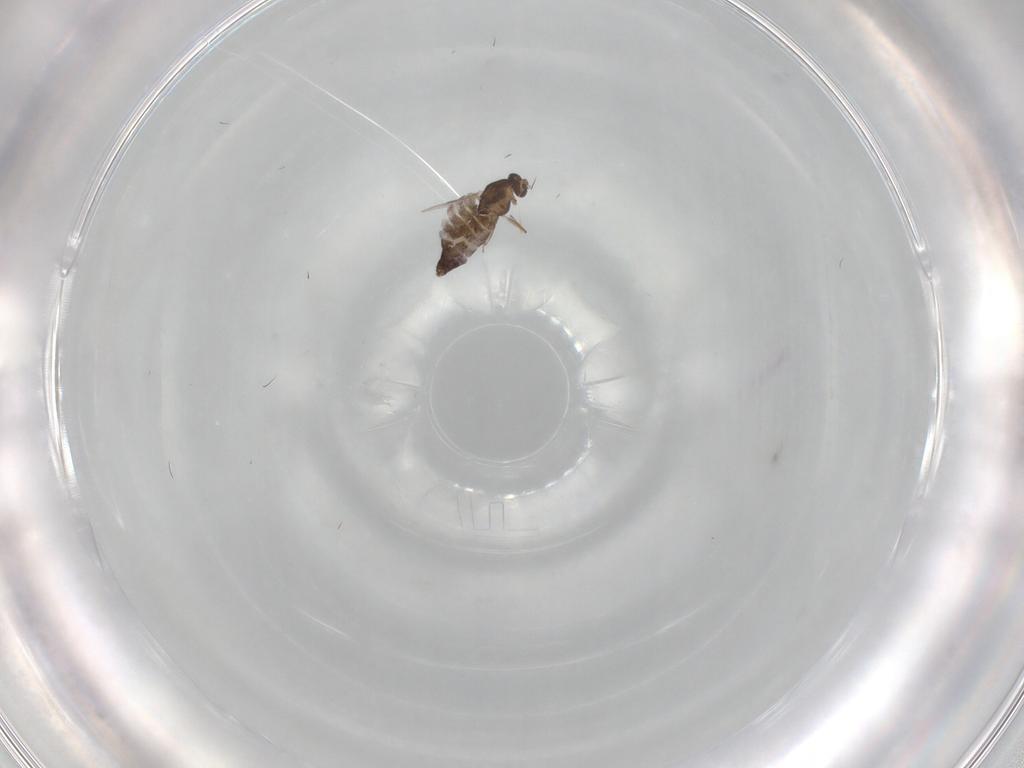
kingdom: Animalia
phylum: Arthropoda
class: Insecta
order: Diptera
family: Chironomidae
